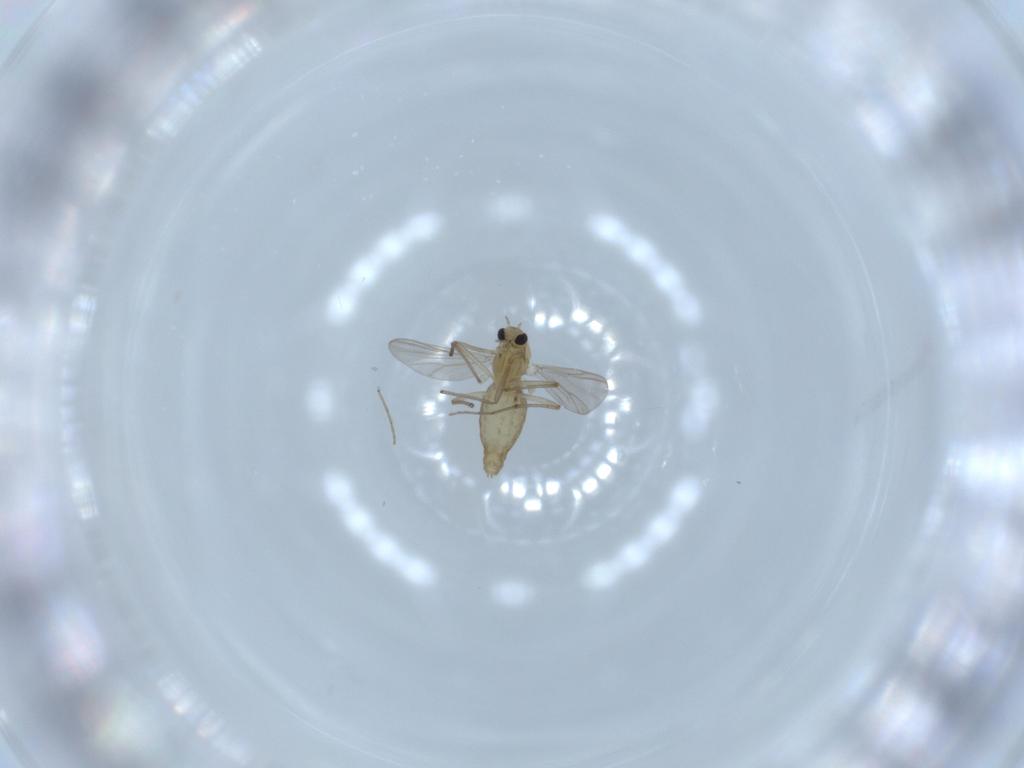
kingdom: Animalia
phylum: Arthropoda
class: Insecta
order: Diptera
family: Chironomidae
